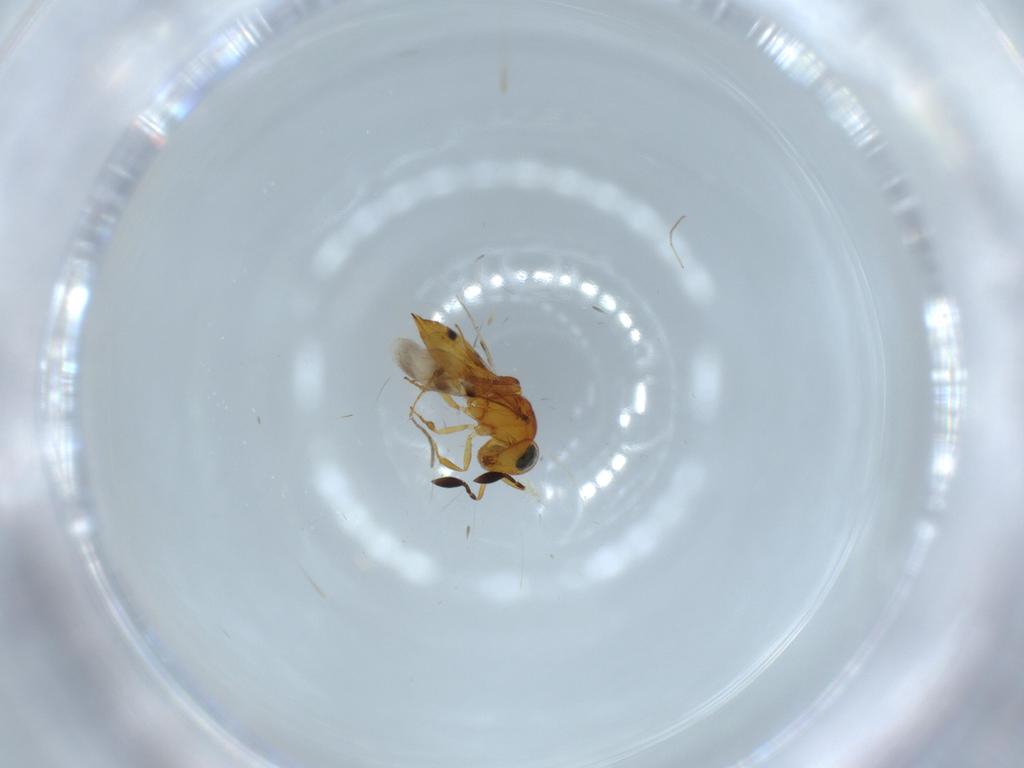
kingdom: Animalia
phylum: Arthropoda
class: Insecta
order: Hymenoptera
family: Scelionidae
